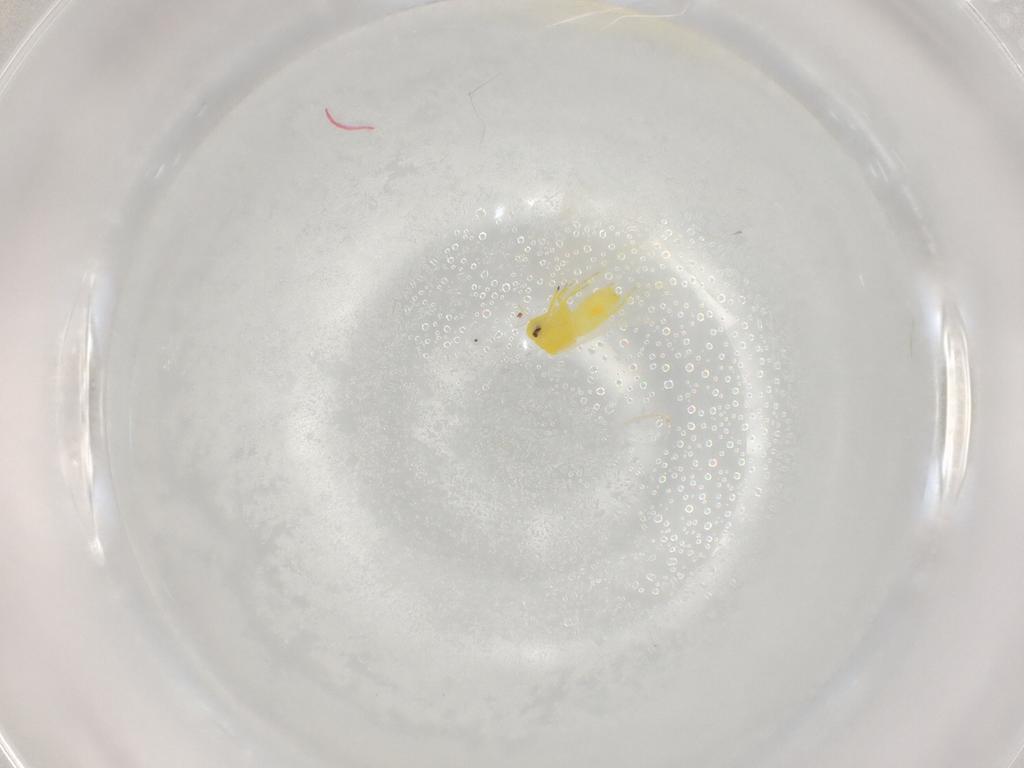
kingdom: Animalia
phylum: Arthropoda
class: Insecta
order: Hemiptera
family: Aleyrodidae
